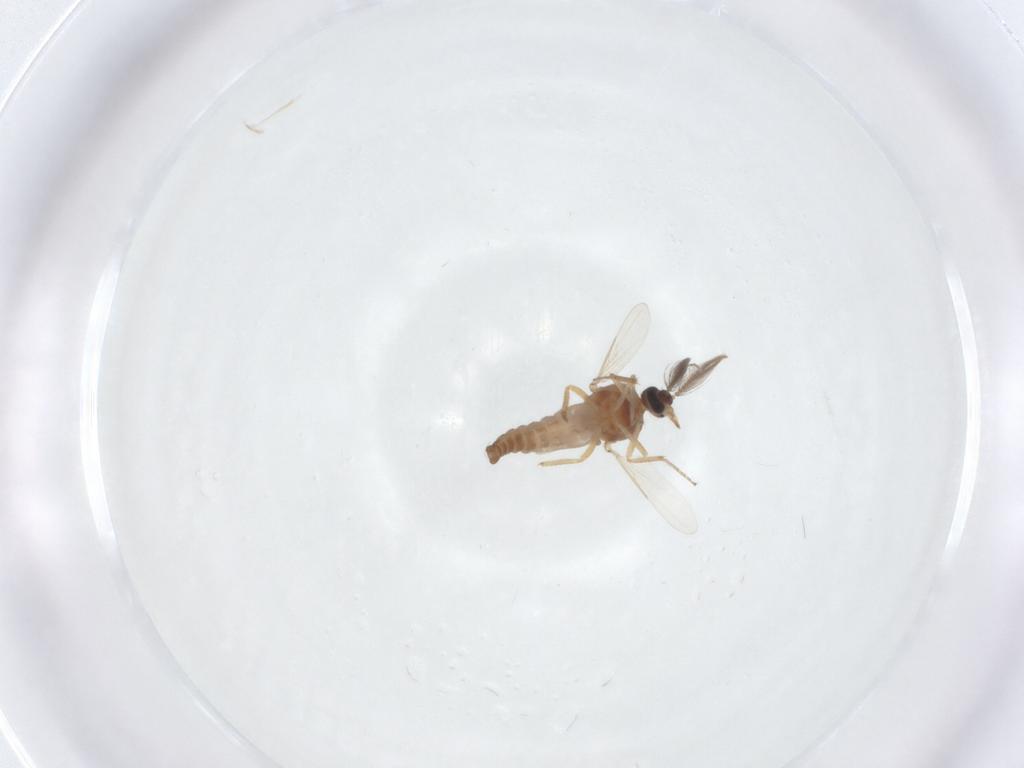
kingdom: Animalia
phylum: Arthropoda
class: Insecta
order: Diptera
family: Ceratopogonidae
